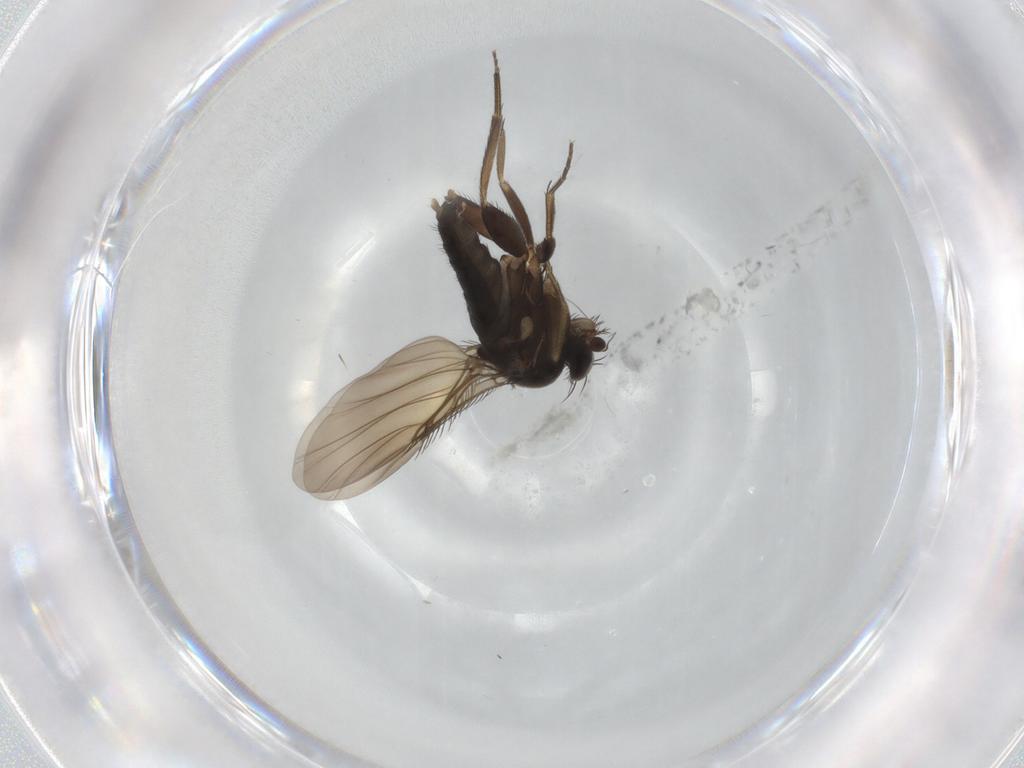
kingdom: Animalia
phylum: Arthropoda
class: Insecta
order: Diptera
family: Phoridae
